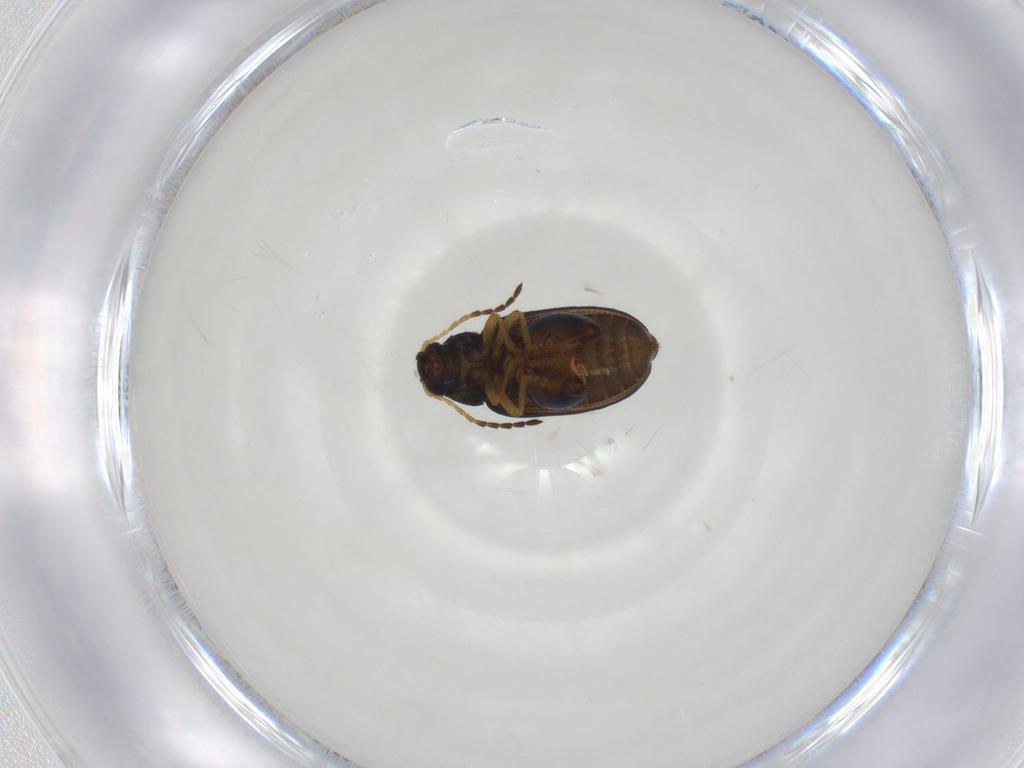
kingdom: Animalia
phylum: Arthropoda
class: Insecta
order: Coleoptera
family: Chrysomelidae
